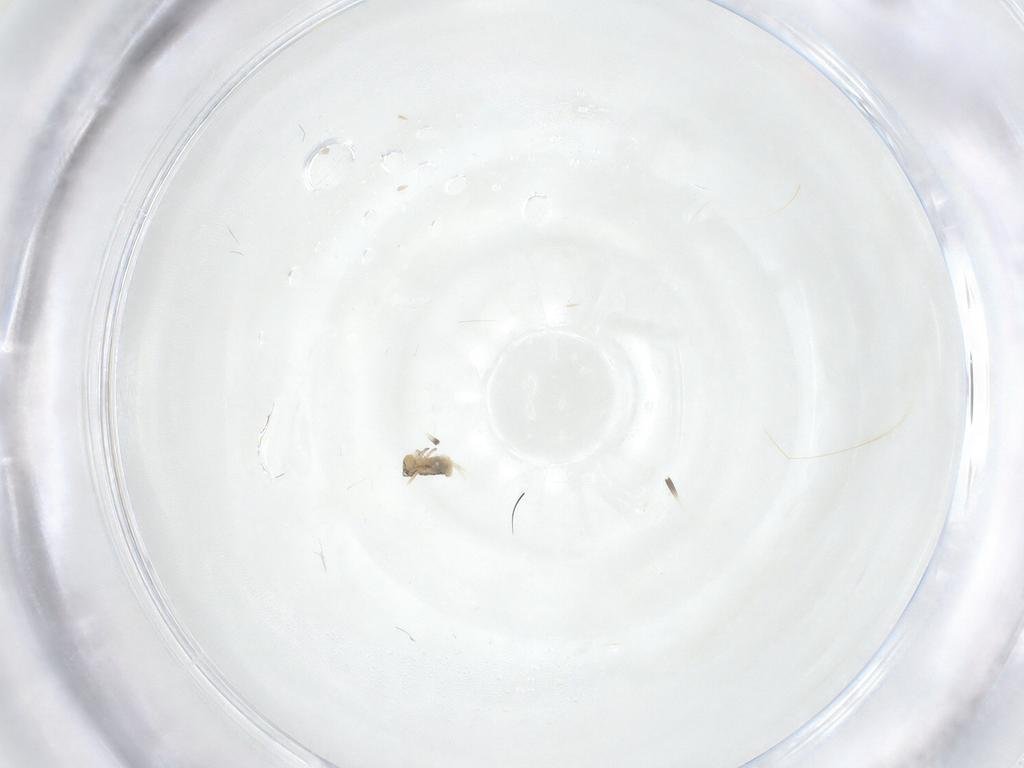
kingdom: Animalia
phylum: Arthropoda
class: Collembola
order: Symphypleona
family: Bourletiellidae
